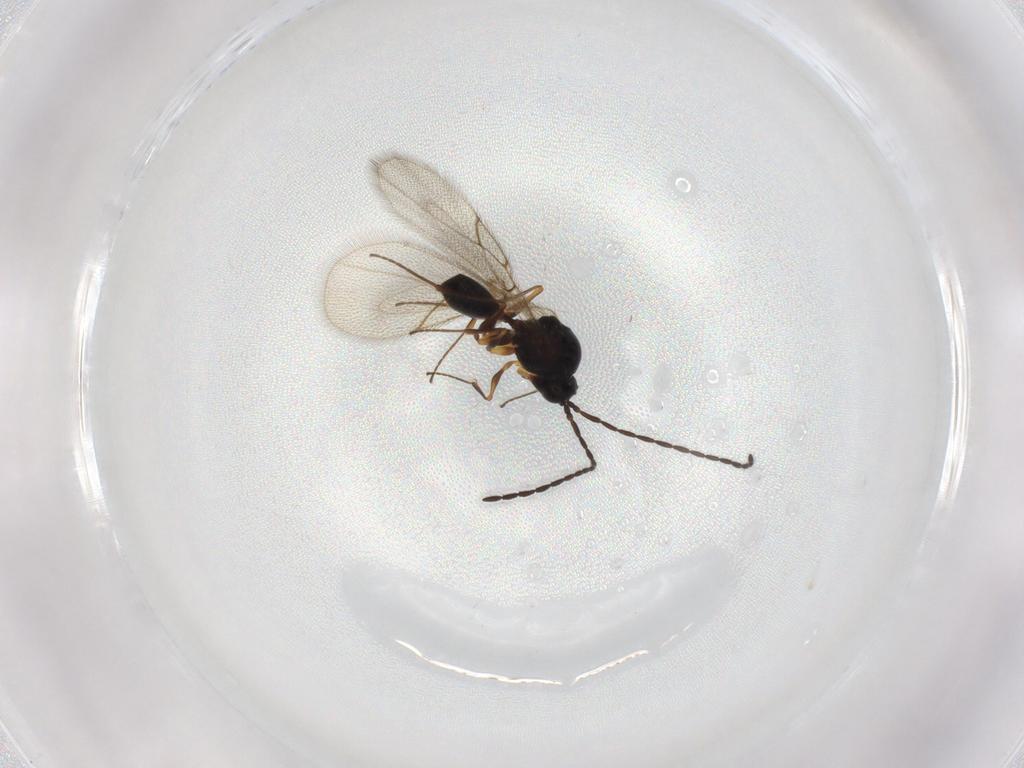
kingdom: Animalia
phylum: Arthropoda
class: Insecta
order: Hymenoptera
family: Figitidae
